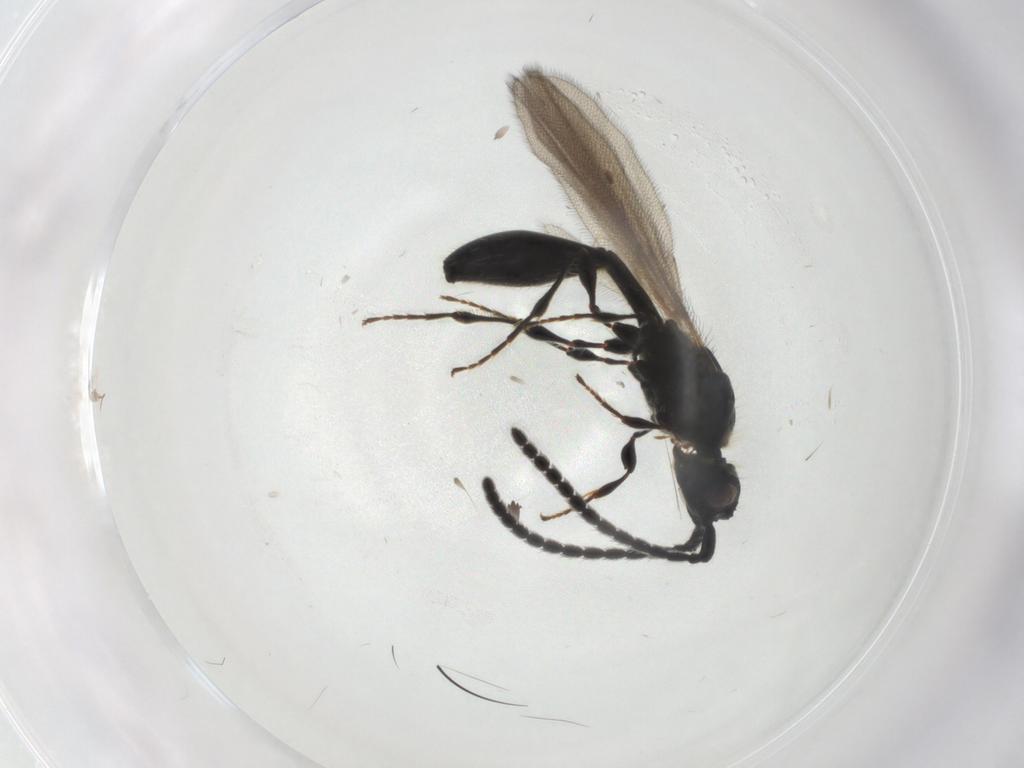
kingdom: Animalia
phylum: Arthropoda
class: Insecta
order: Hymenoptera
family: Diapriidae
